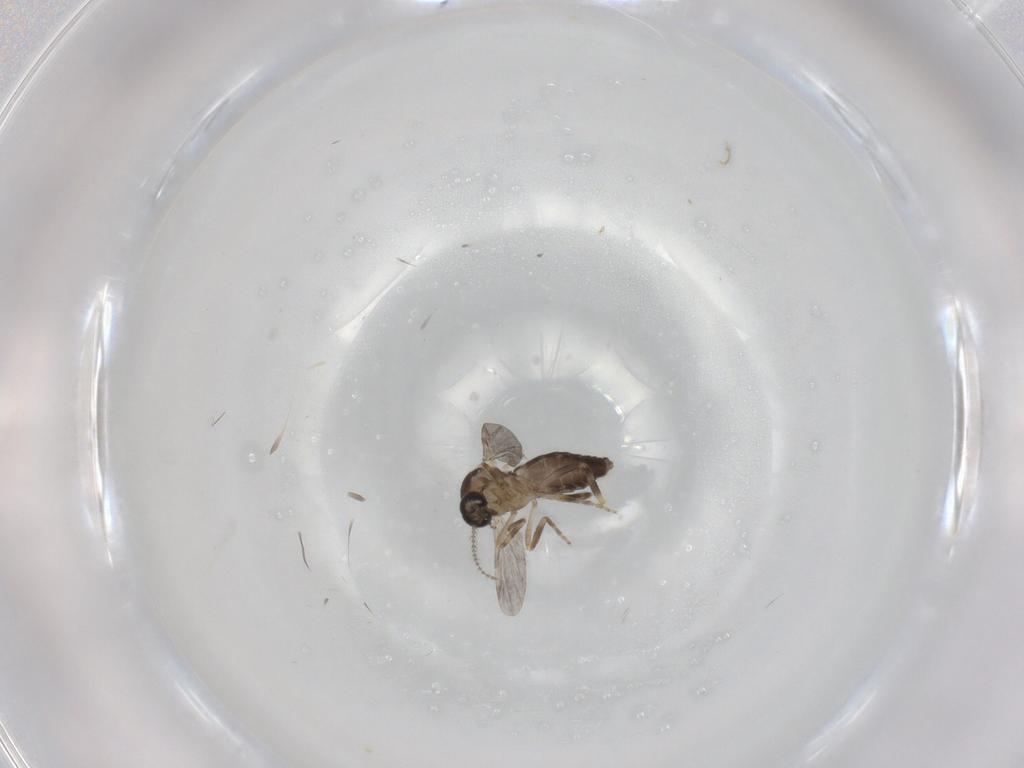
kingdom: Animalia
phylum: Arthropoda
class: Insecta
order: Diptera
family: Ceratopogonidae
